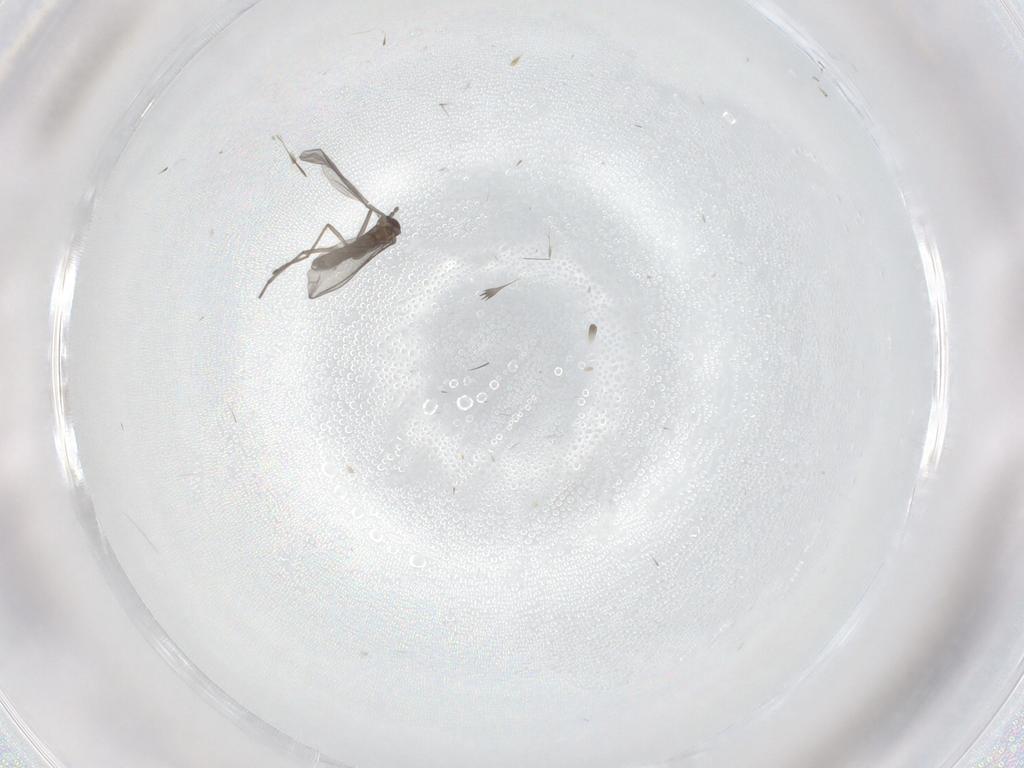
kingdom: Animalia
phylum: Arthropoda
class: Insecta
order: Diptera
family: Sciaridae
